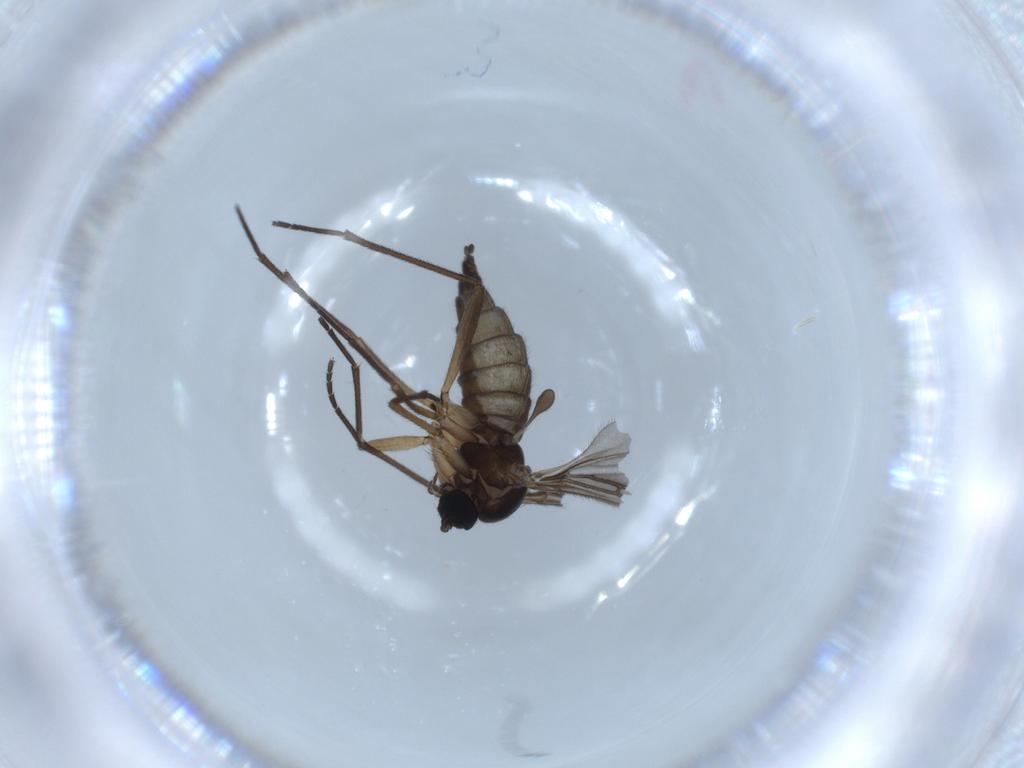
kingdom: Animalia
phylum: Arthropoda
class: Insecta
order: Diptera
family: Sciaridae
